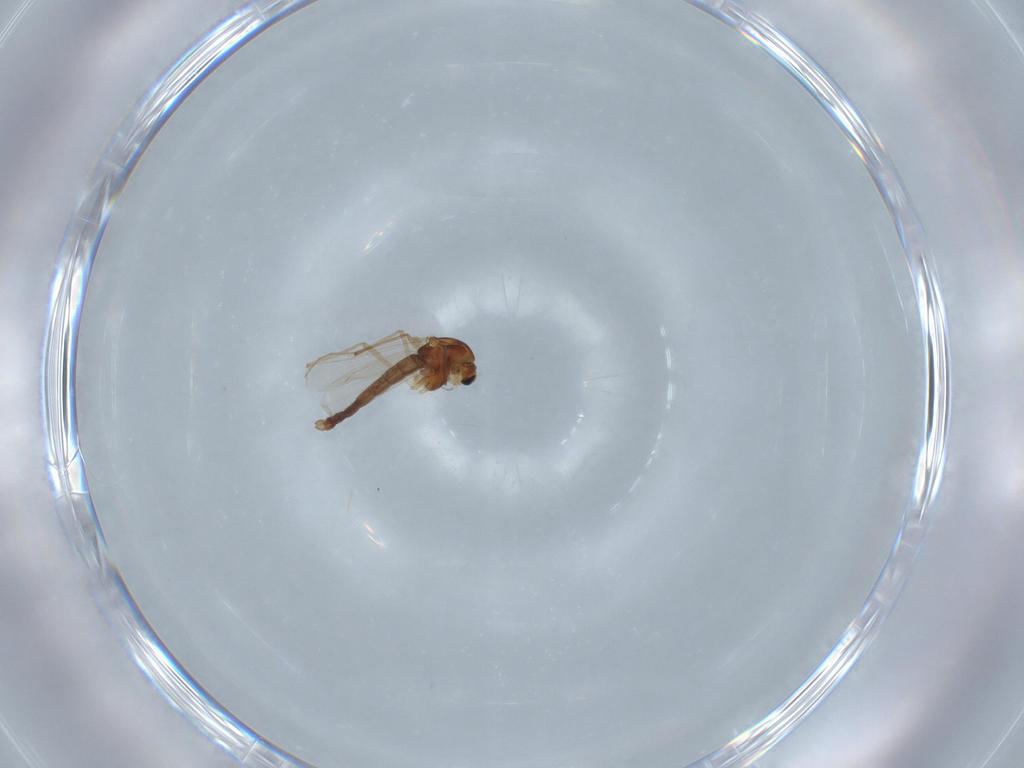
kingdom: Animalia
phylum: Arthropoda
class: Insecta
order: Diptera
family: Chironomidae
